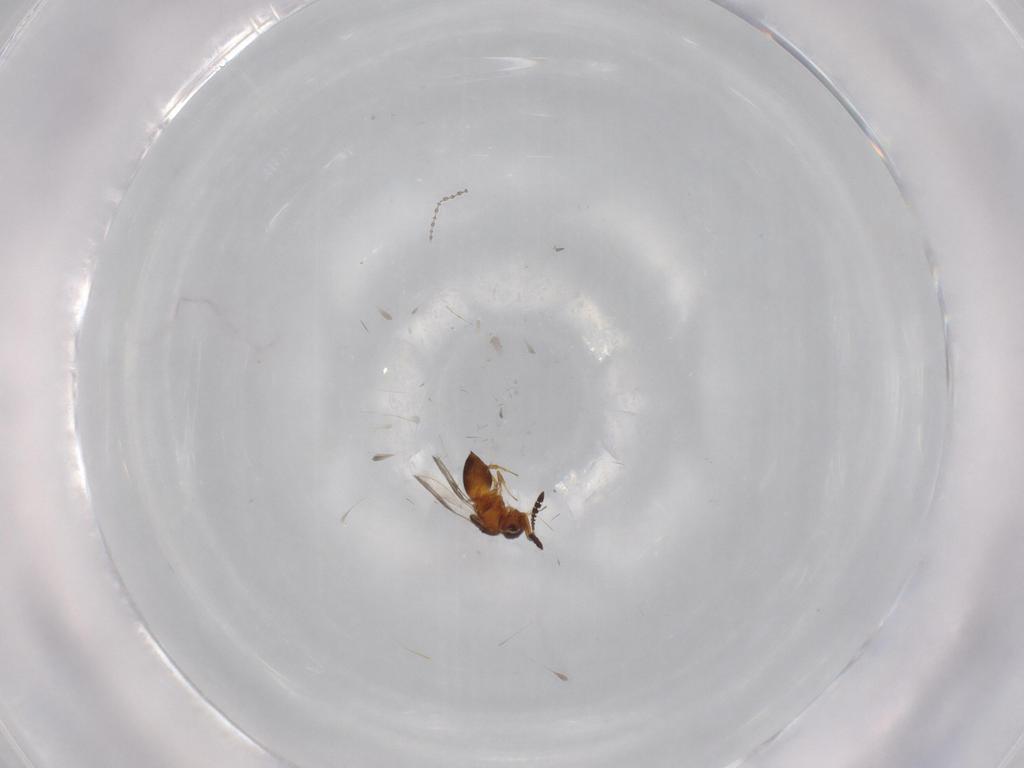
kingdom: Animalia
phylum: Arthropoda
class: Insecta
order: Hymenoptera
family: Ceraphronidae
